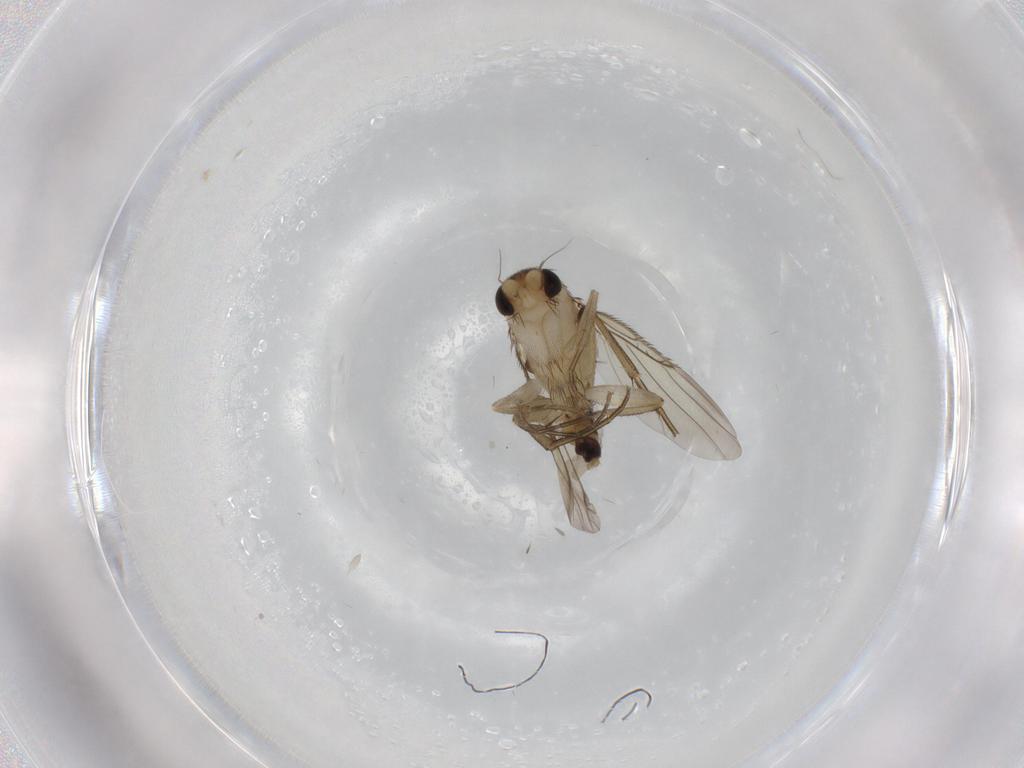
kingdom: Animalia
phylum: Arthropoda
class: Insecta
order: Diptera
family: Phoridae
